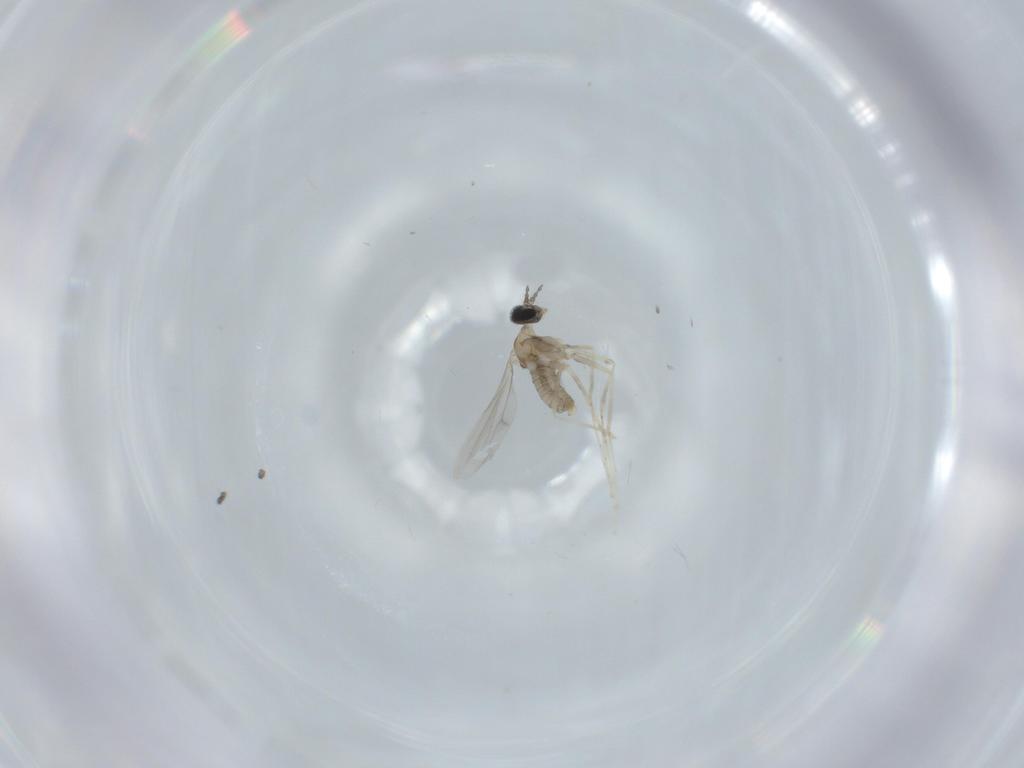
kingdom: Animalia
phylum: Arthropoda
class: Insecta
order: Diptera
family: Cecidomyiidae
